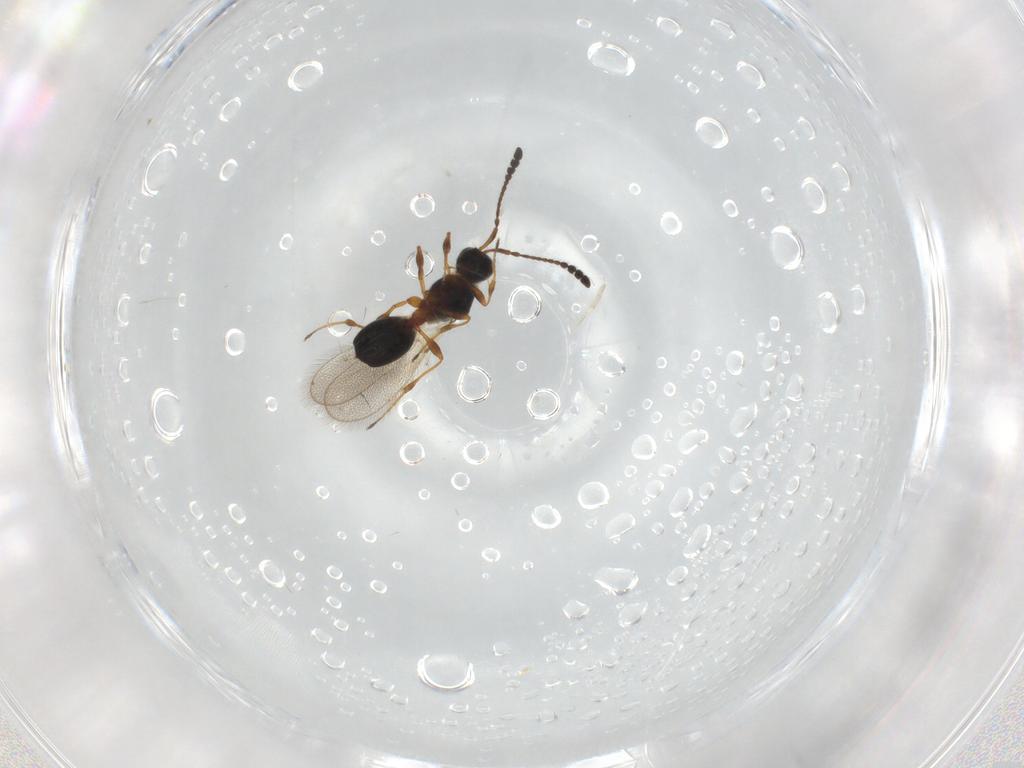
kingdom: Animalia
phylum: Arthropoda
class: Insecta
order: Hymenoptera
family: Diapriidae
